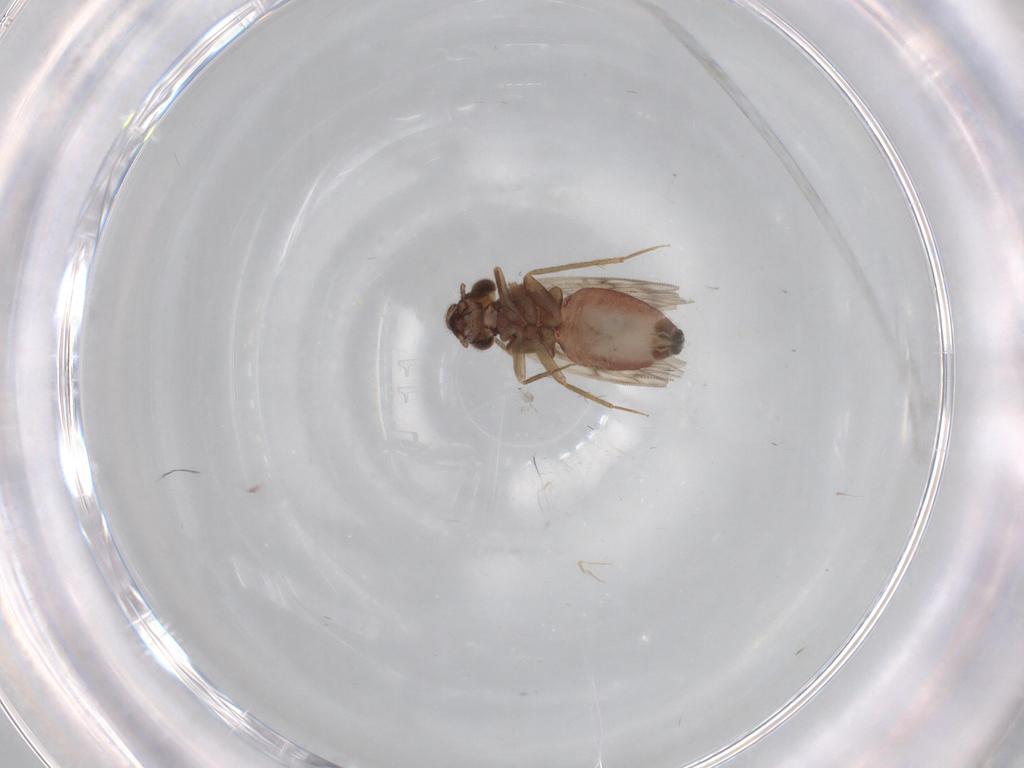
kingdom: Animalia
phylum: Arthropoda
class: Insecta
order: Psocodea
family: Lepidopsocidae
